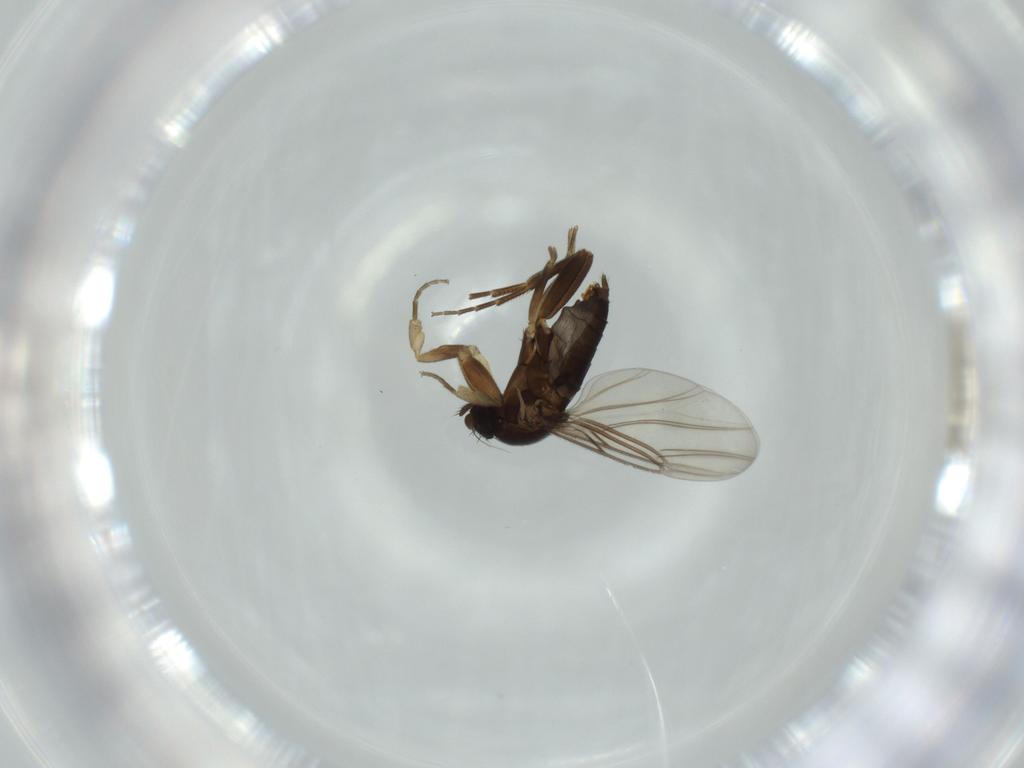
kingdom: Animalia
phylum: Arthropoda
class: Insecta
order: Diptera
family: Phoridae
